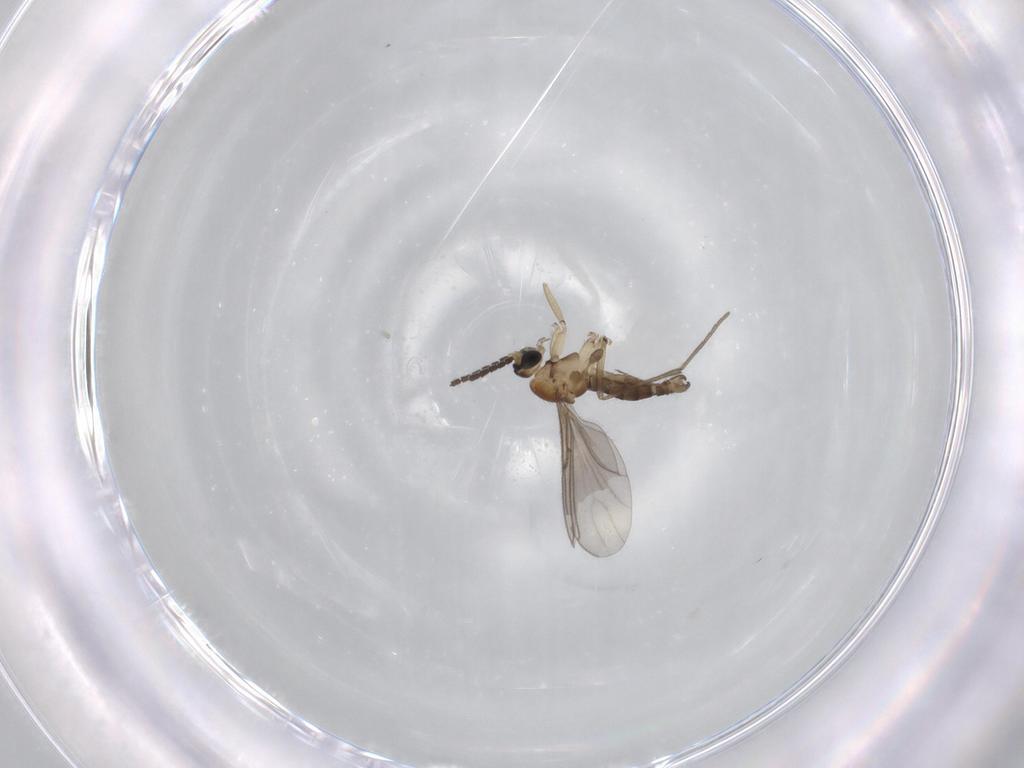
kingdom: Animalia
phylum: Arthropoda
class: Insecta
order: Diptera
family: Sciaridae
